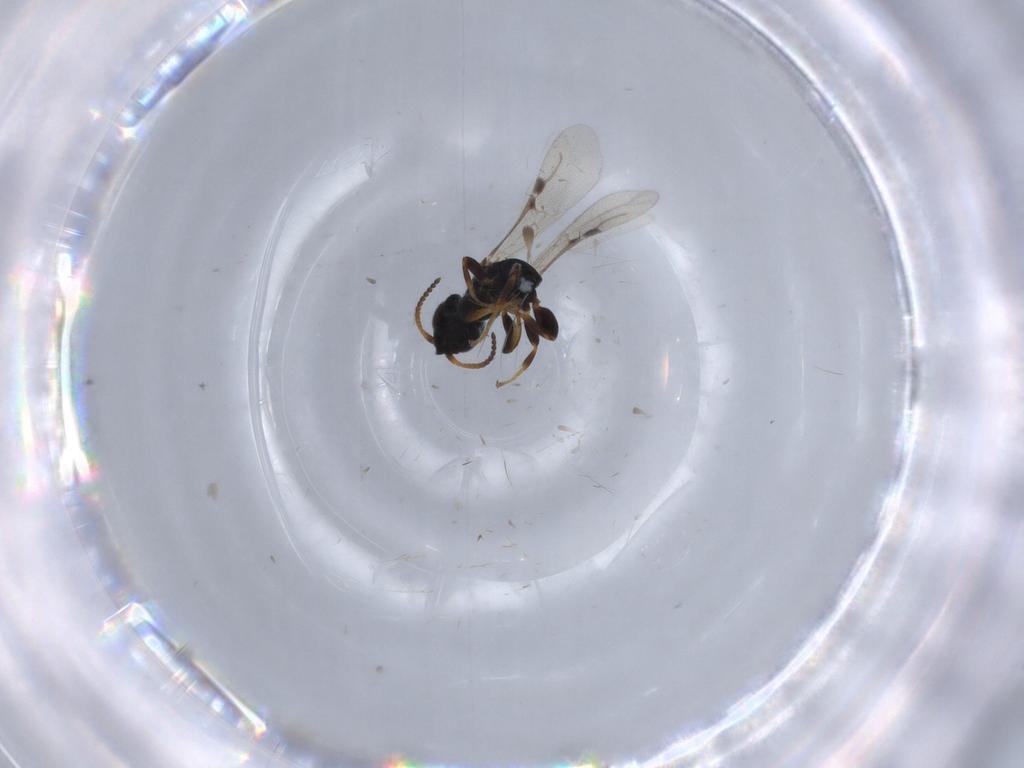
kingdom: Animalia
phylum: Arthropoda
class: Insecta
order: Hymenoptera
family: Bethylidae
